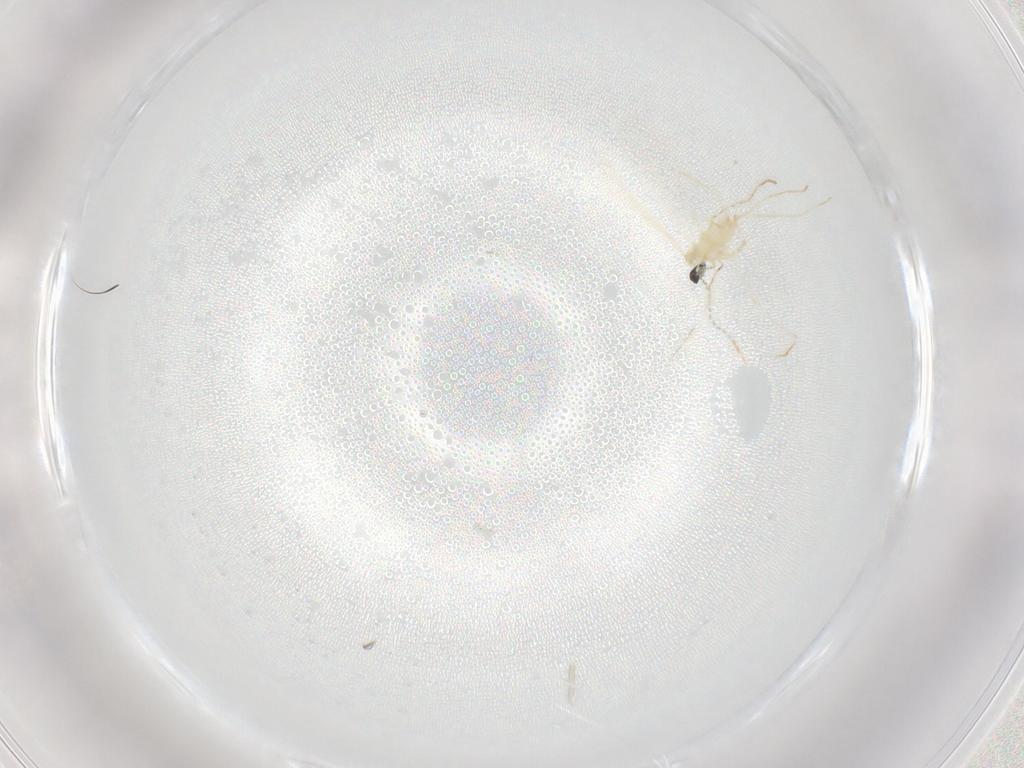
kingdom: Animalia
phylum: Arthropoda
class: Insecta
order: Diptera
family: Cecidomyiidae
